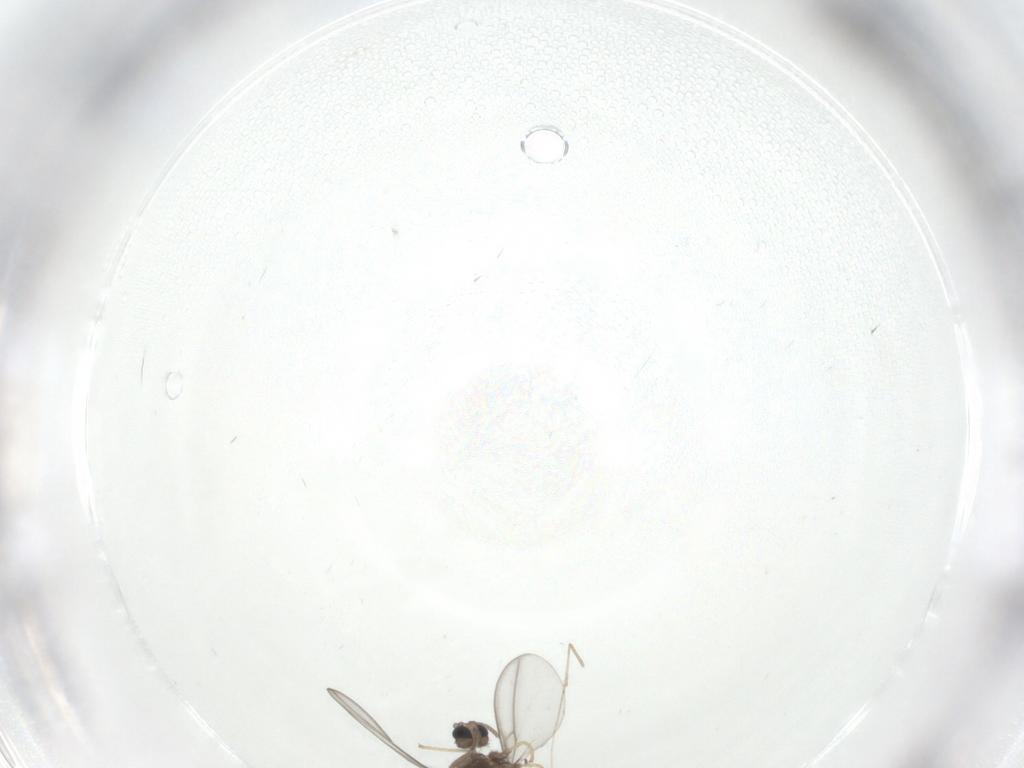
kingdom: Animalia
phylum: Arthropoda
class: Insecta
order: Diptera
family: Cecidomyiidae
